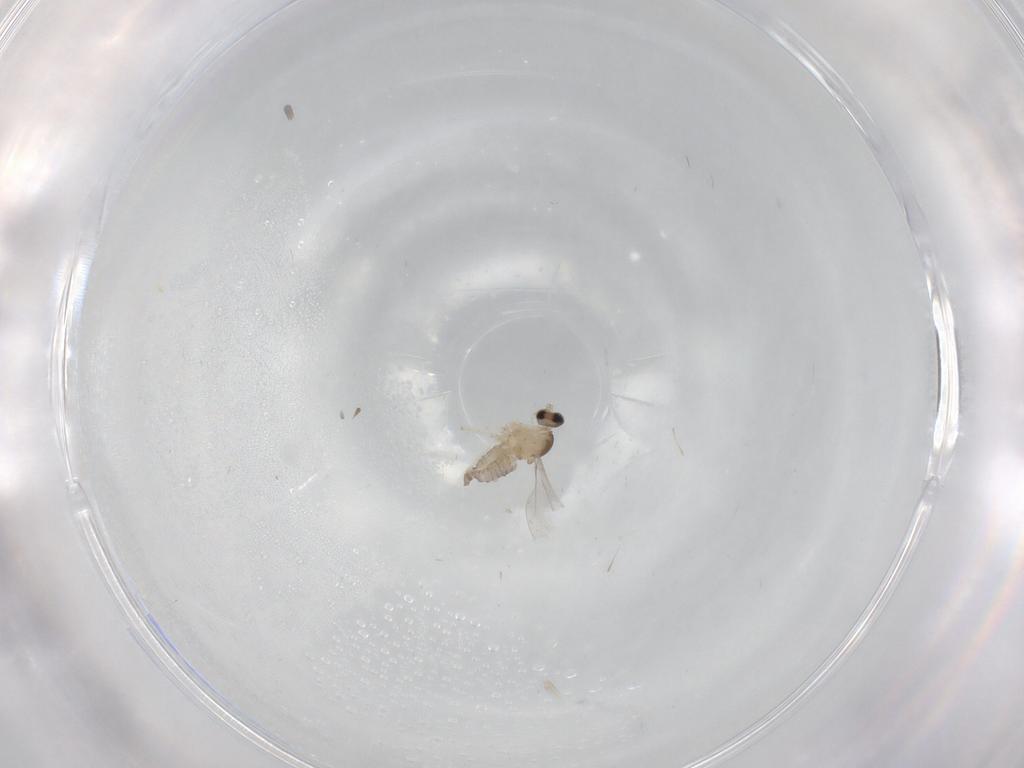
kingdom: Animalia
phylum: Arthropoda
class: Insecta
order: Diptera
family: Cecidomyiidae
